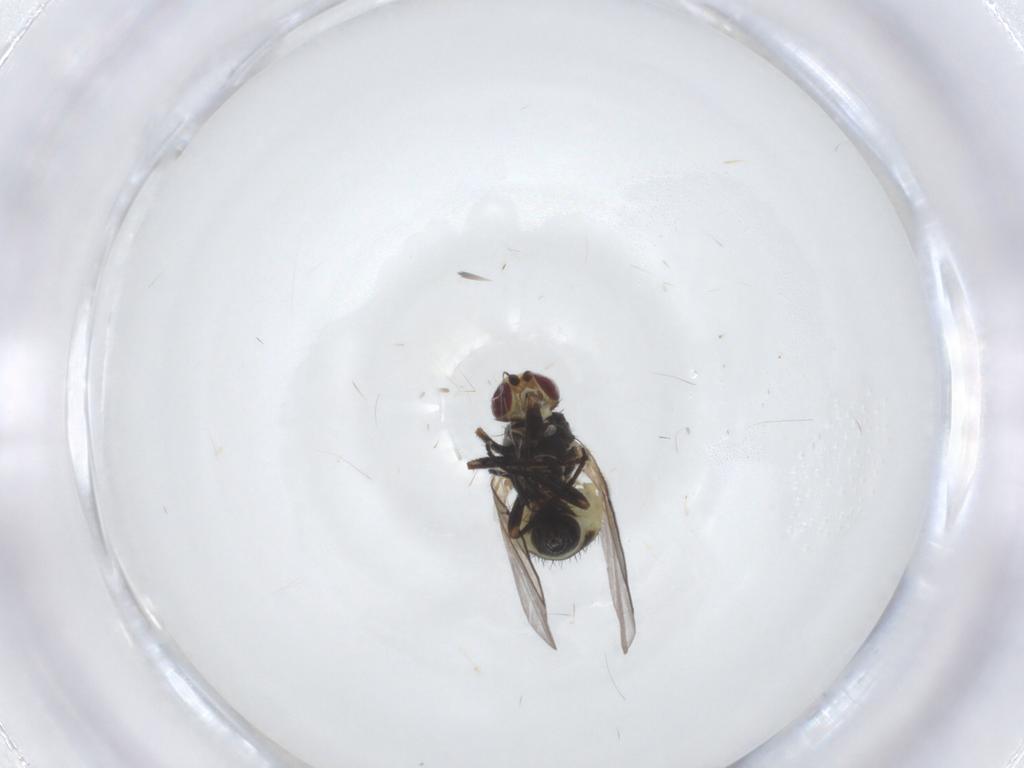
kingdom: Animalia
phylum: Arthropoda
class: Insecta
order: Diptera
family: Agromyzidae
